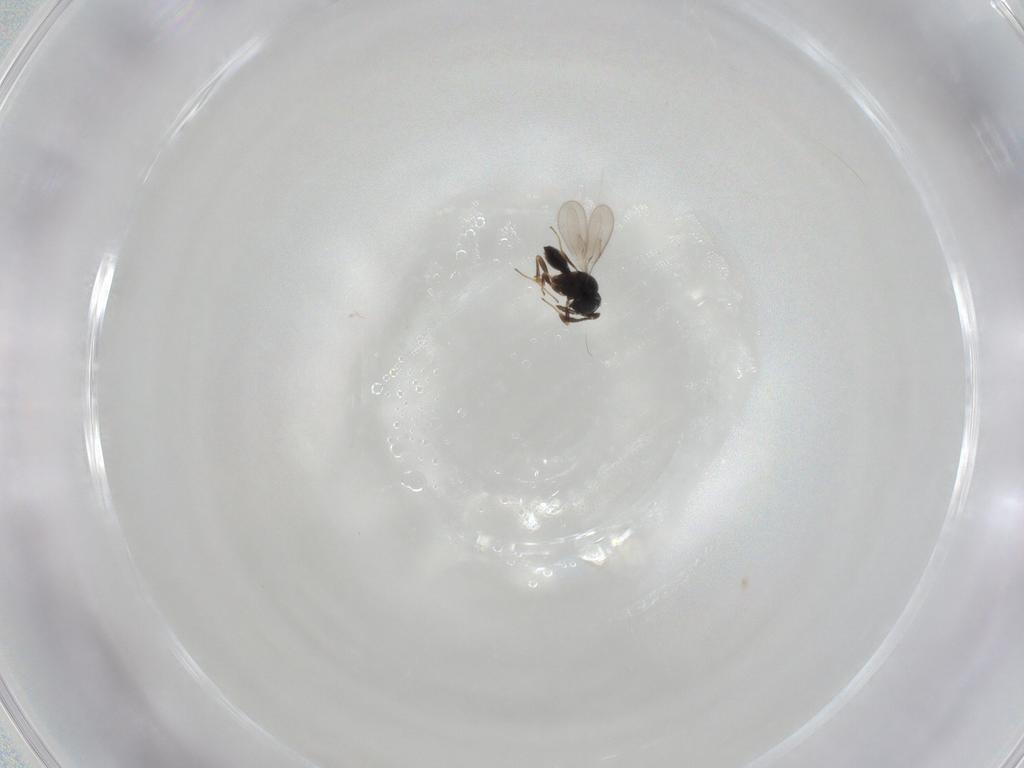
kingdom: Animalia
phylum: Arthropoda
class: Insecta
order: Hymenoptera
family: Scelionidae
